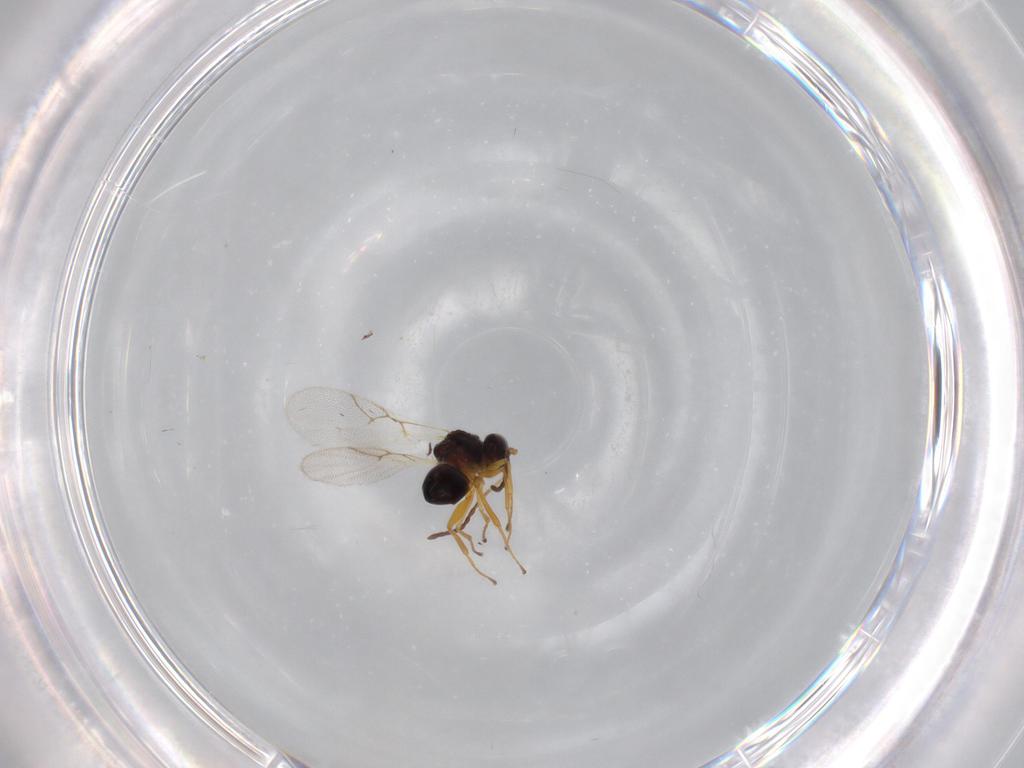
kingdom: Animalia
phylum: Arthropoda
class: Insecta
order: Hymenoptera
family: Figitidae
